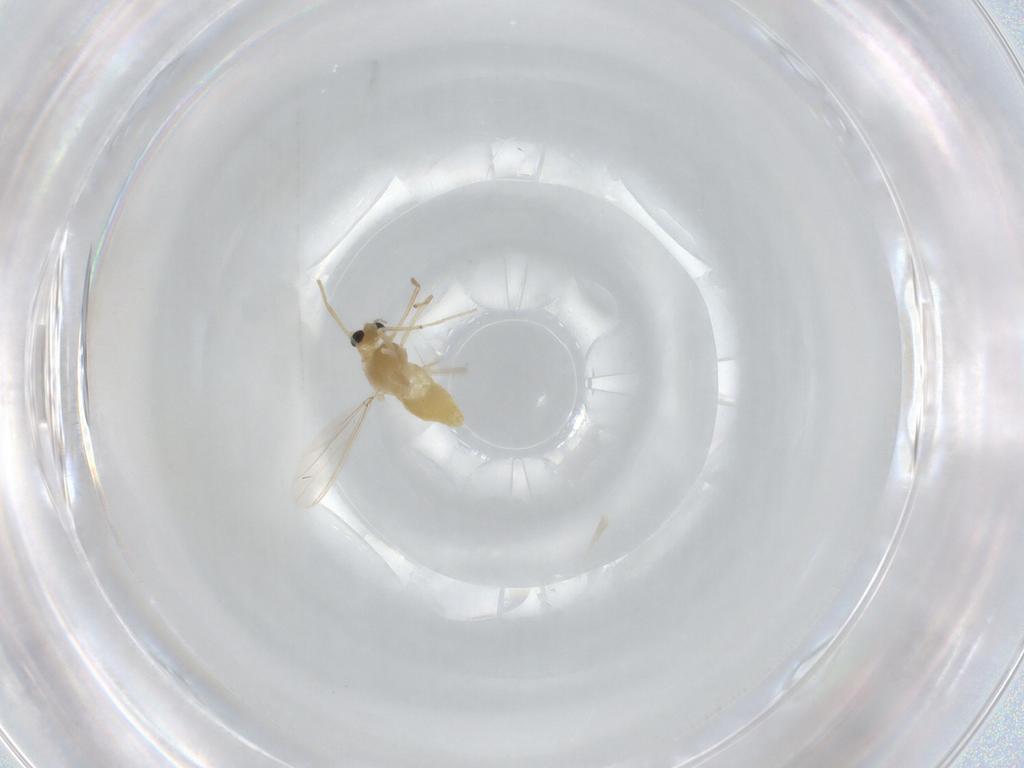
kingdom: Animalia
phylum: Arthropoda
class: Insecta
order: Diptera
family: Chironomidae
